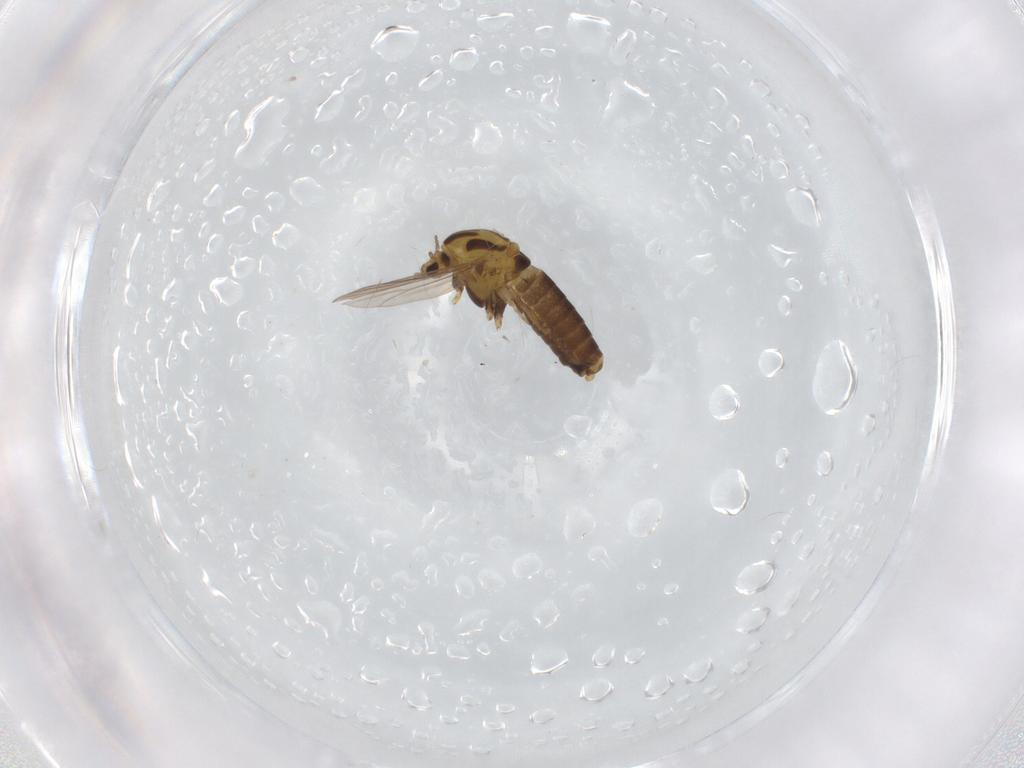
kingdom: Animalia
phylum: Arthropoda
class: Insecta
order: Diptera
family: Chironomidae
